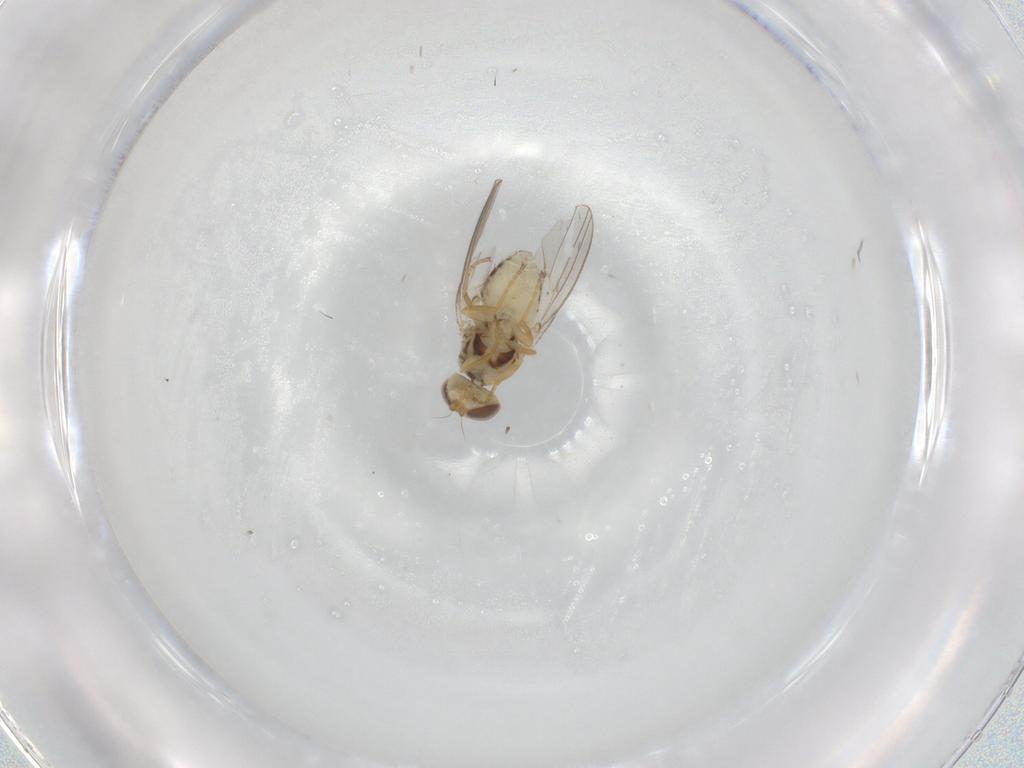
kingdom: Animalia
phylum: Arthropoda
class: Insecta
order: Diptera
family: Chyromyidae
